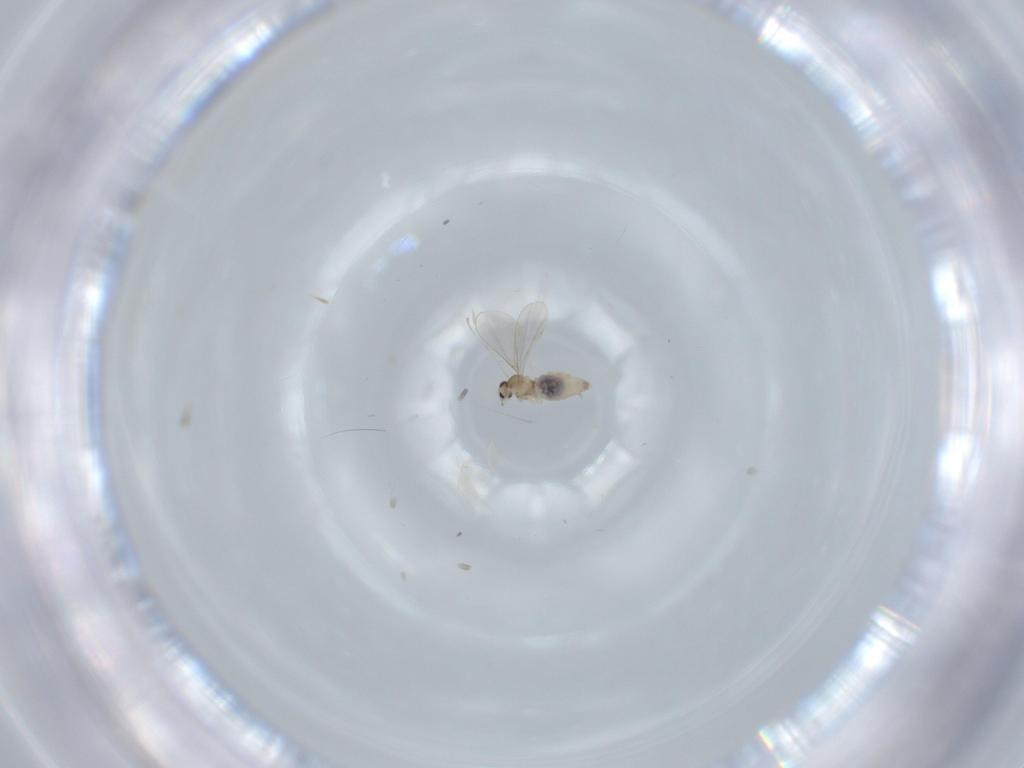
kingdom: Animalia
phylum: Arthropoda
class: Insecta
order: Diptera
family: Cecidomyiidae
